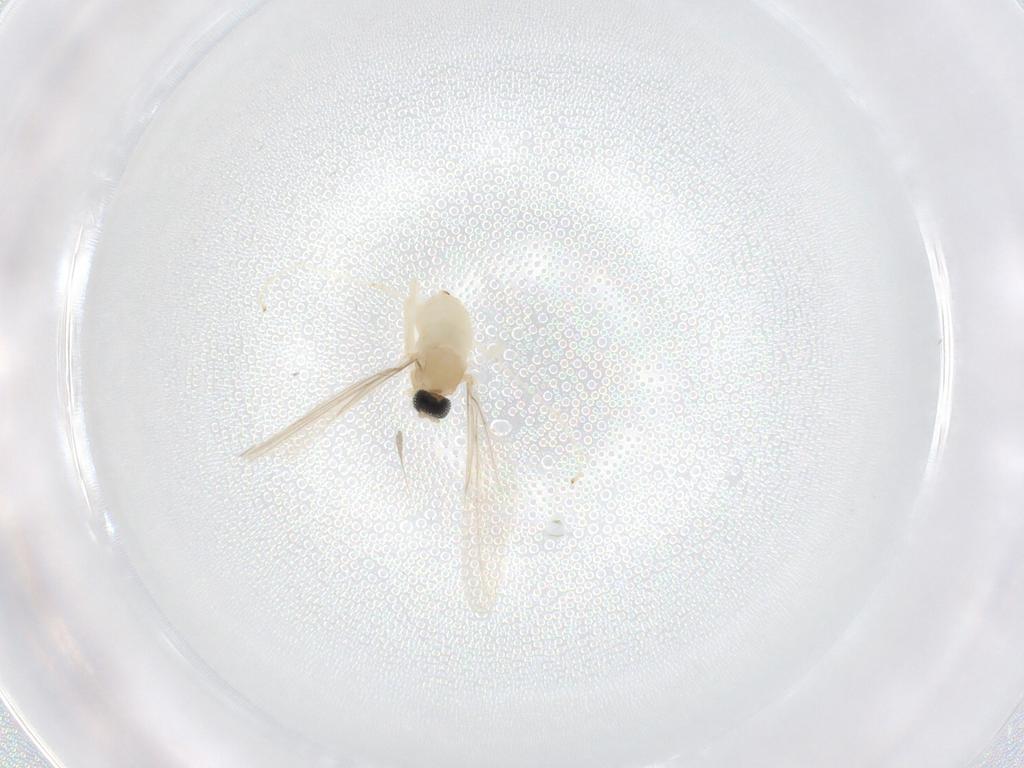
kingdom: Animalia
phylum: Arthropoda
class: Insecta
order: Diptera
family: Cecidomyiidae
